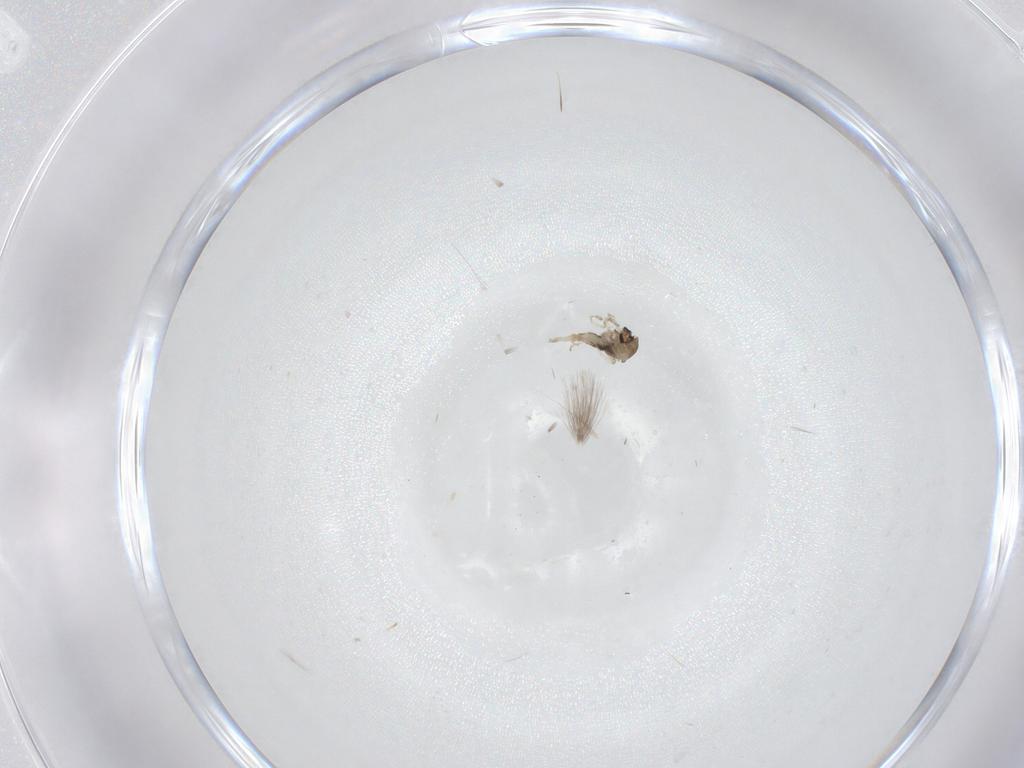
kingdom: Animalia
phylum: Arthropoda
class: Insecta
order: Diptera
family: Cecidomyiidae
